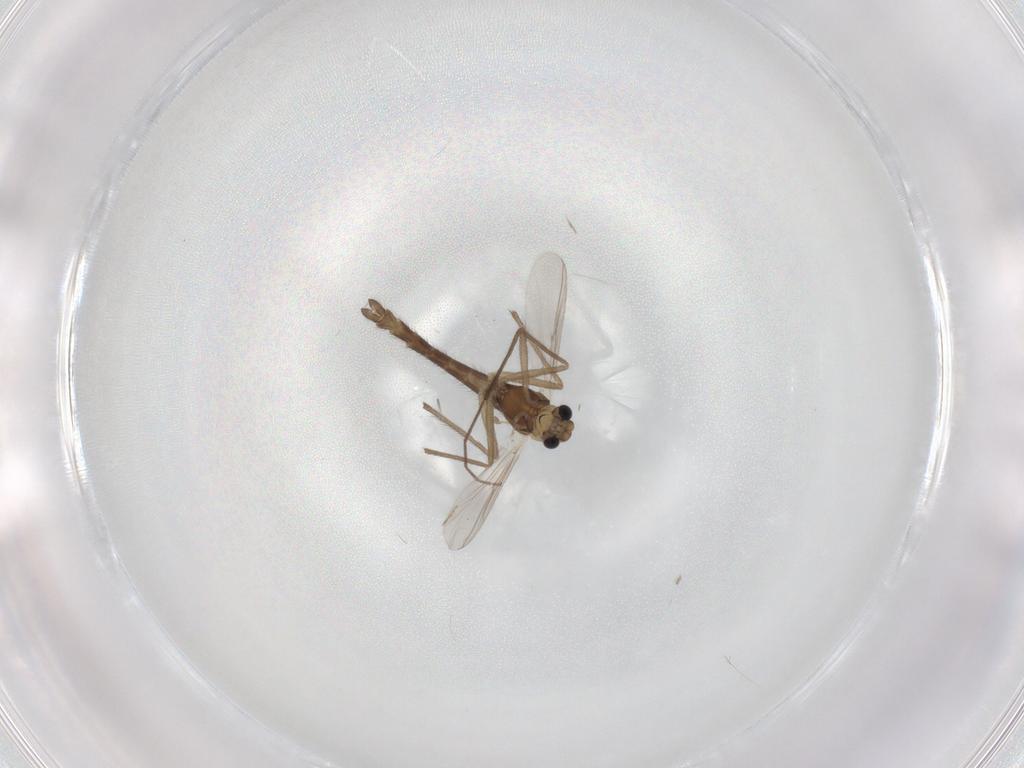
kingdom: Animalia
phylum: Arthropoda
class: Insecta
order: Diptera
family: Chironomidae
